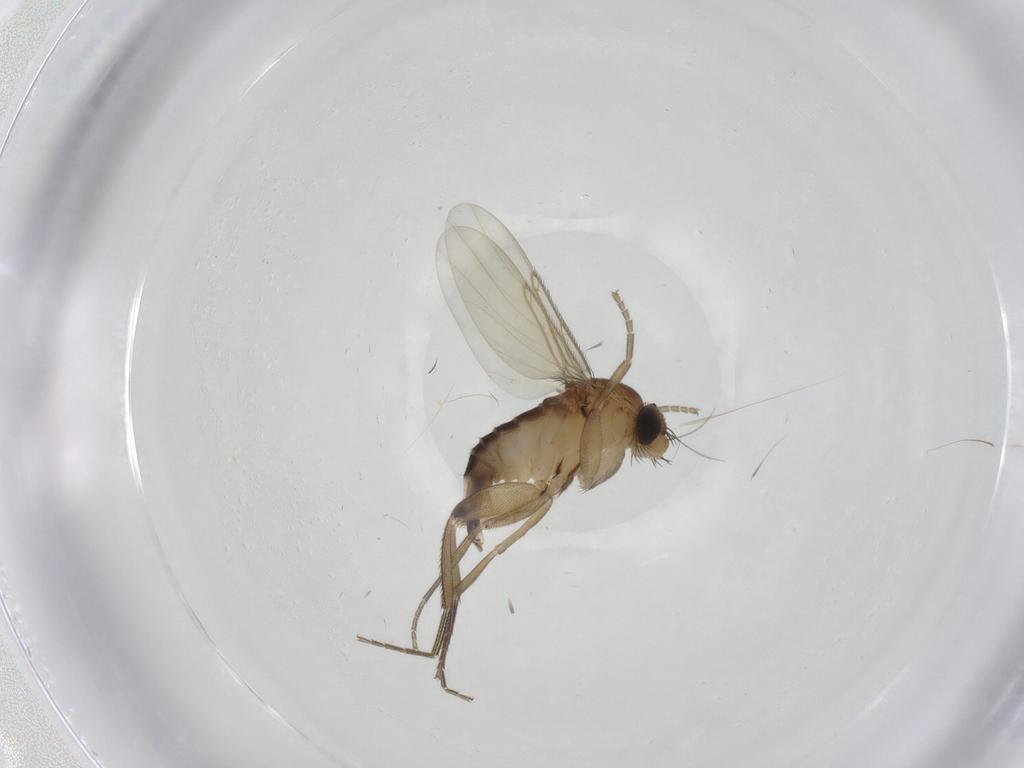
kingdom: Animalia
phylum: Arthropoda
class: Insecta
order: Diptera
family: Phoridae
